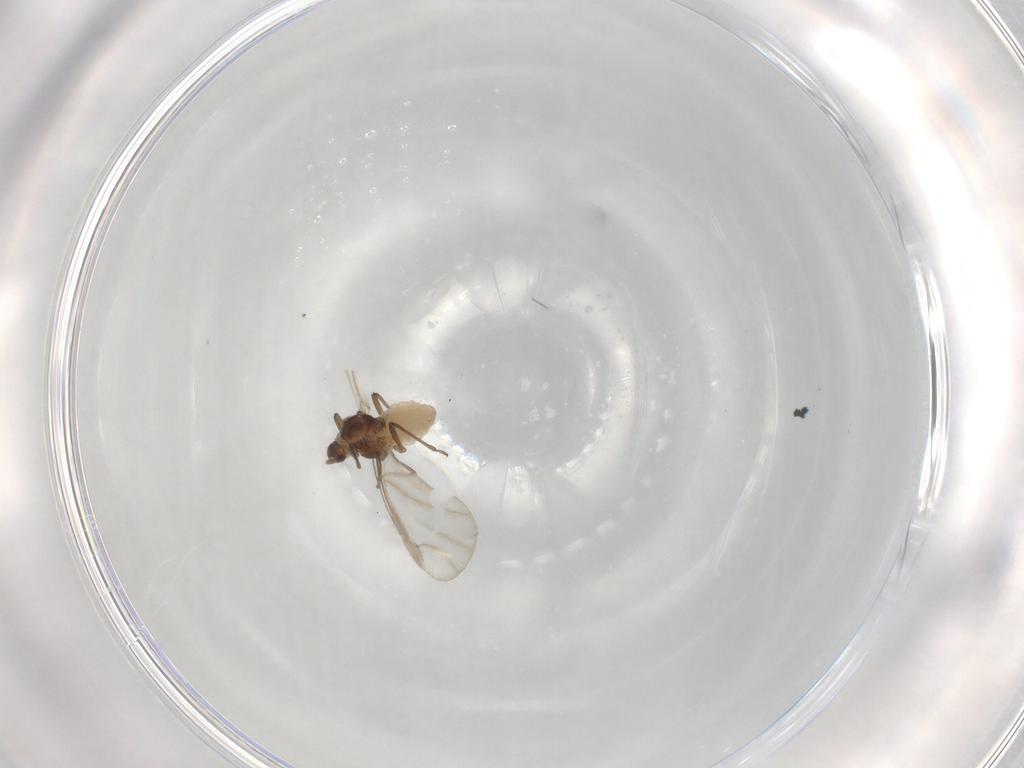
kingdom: Animalia
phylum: Arthropoda
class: Insecta
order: Hemiptera
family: Aphididae
